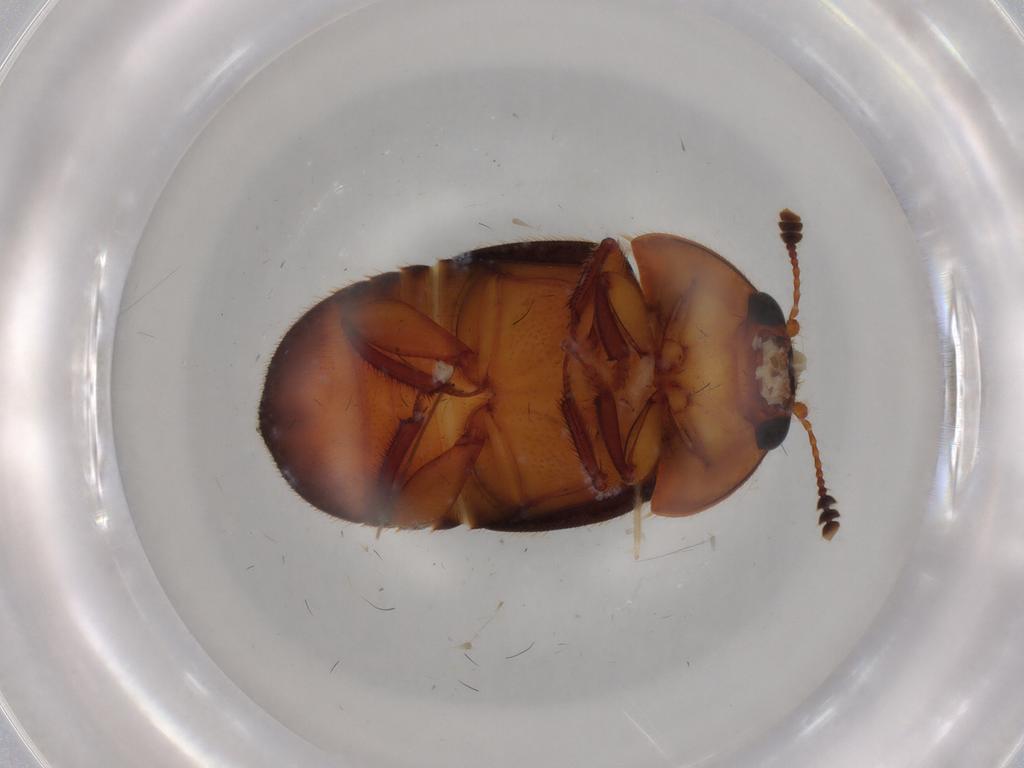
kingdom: Animalia
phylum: Arthropoda
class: Insecta
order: Coleoptera
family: Nitidulidae
